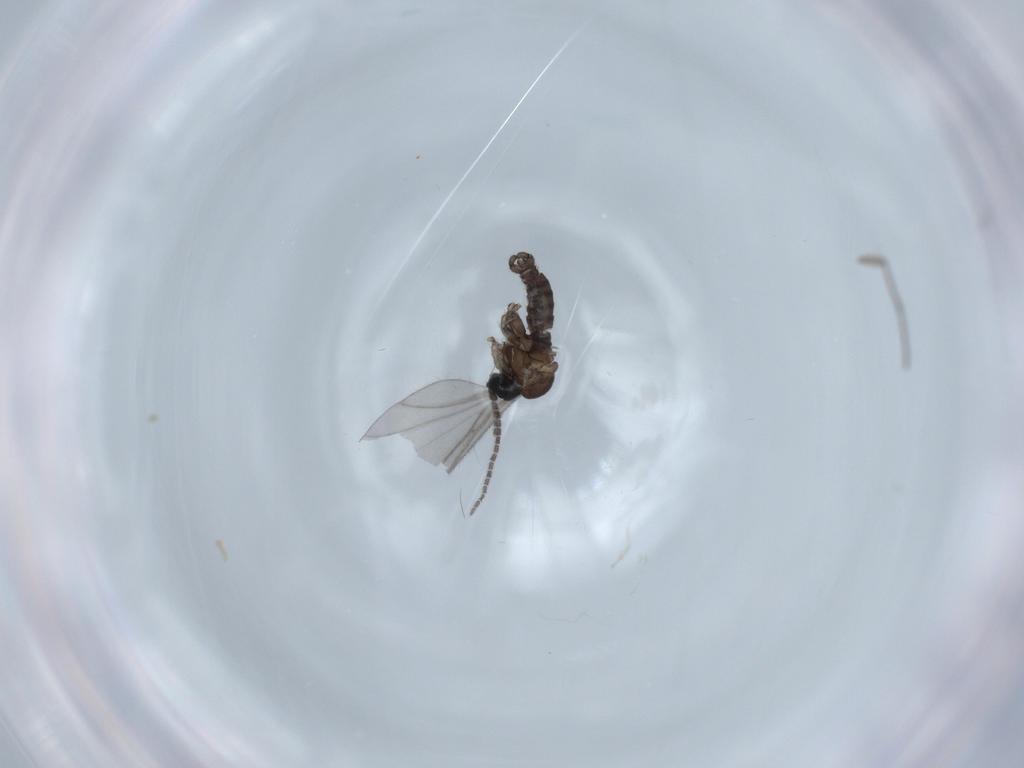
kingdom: Animalia
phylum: Arthropoda
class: Insecta
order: Diptera
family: Sciaridae
